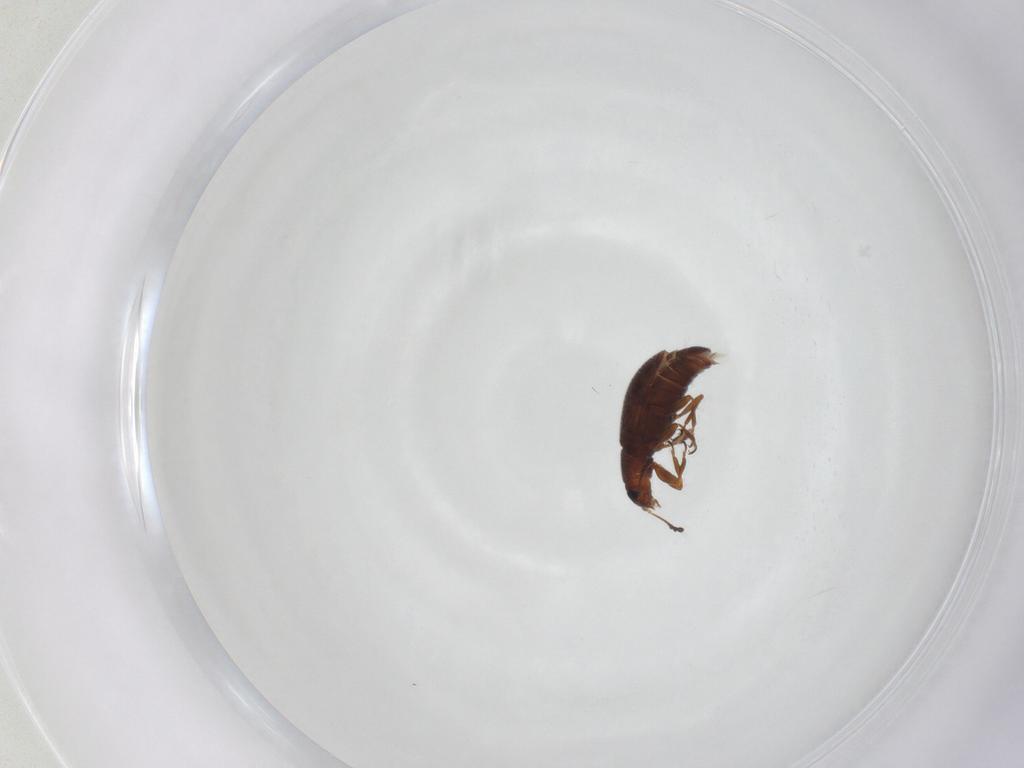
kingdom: Animalia
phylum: Arthropoda
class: Insecta
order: Coleoptera
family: Latridiidae
